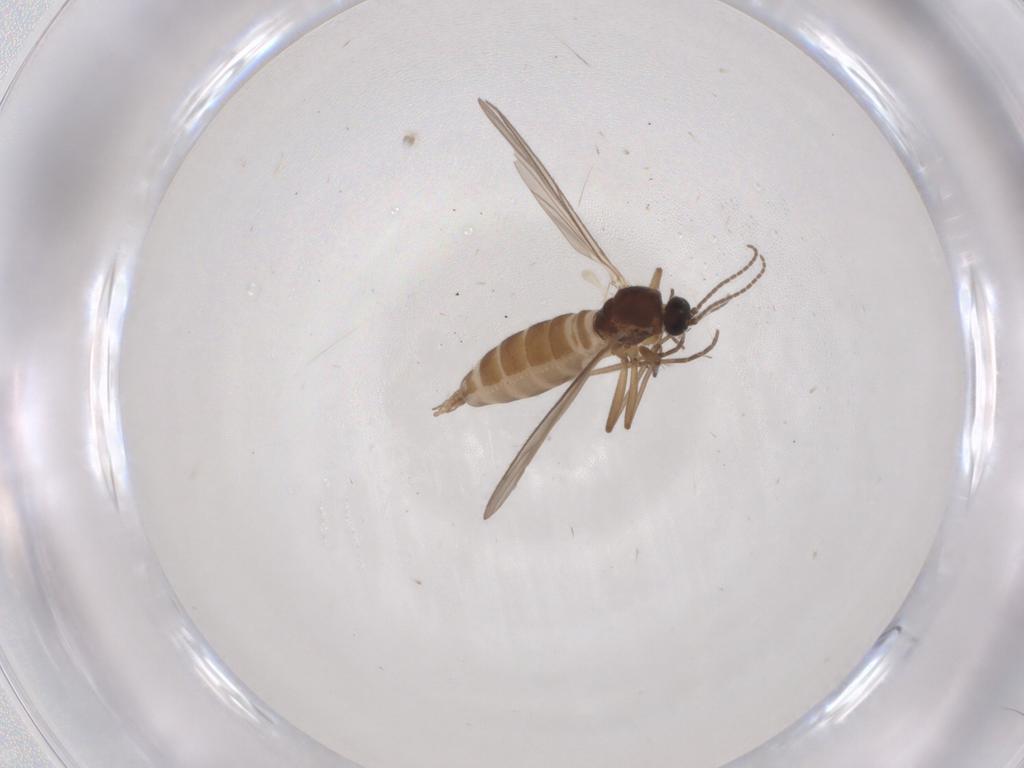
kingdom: Animalia
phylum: Arthropoda
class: Insecta
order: Diptera
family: Sciaridae
